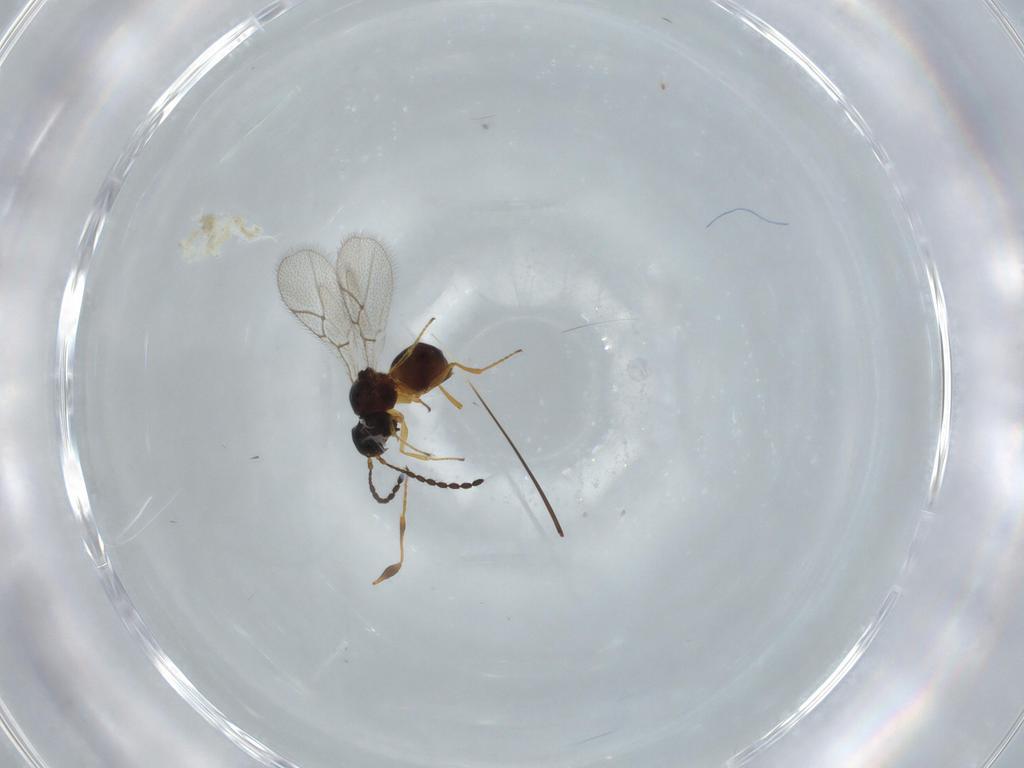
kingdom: Animalia
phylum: Arthropoda
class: Insecta
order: Hymenoptera
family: Figitidae
